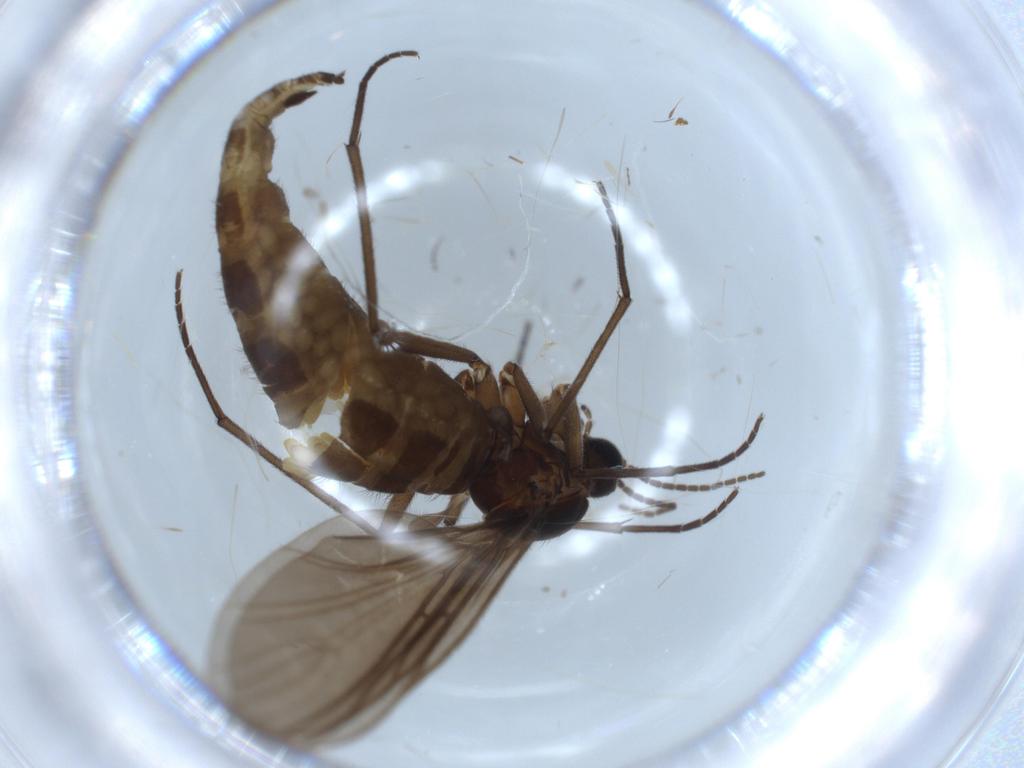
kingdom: Animalia
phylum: Arthropoda
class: Insecta
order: Diptera
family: Sciaridae
